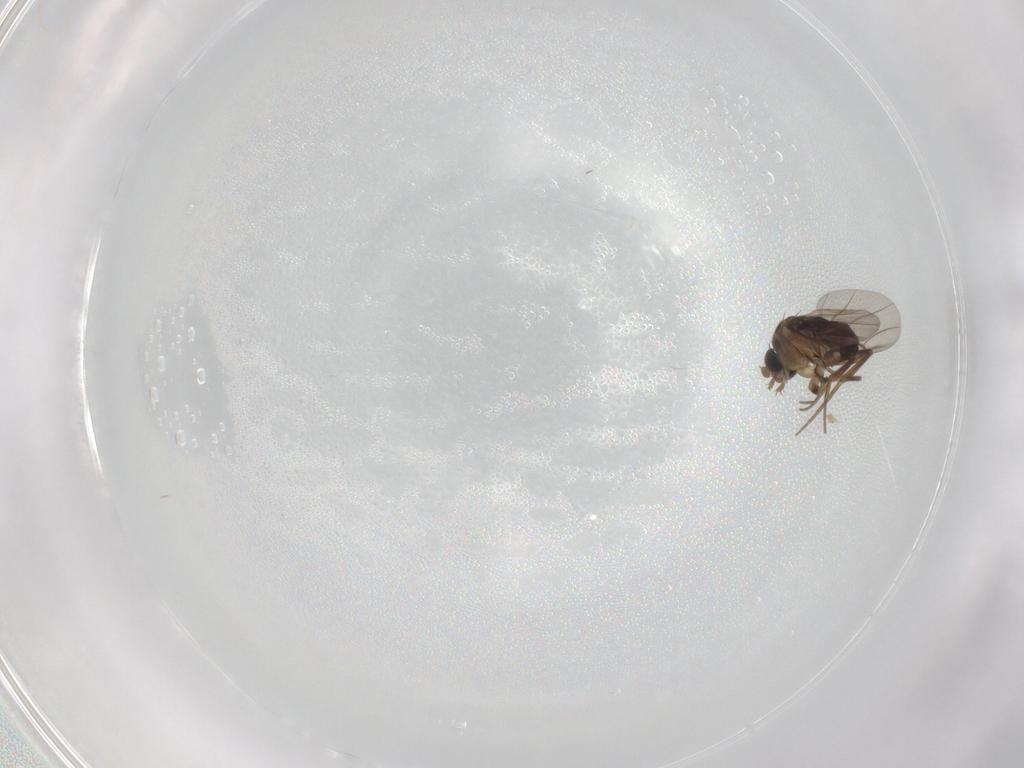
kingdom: Animalia
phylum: Arthropoda
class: Insecta
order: Diptera
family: Phoridae
